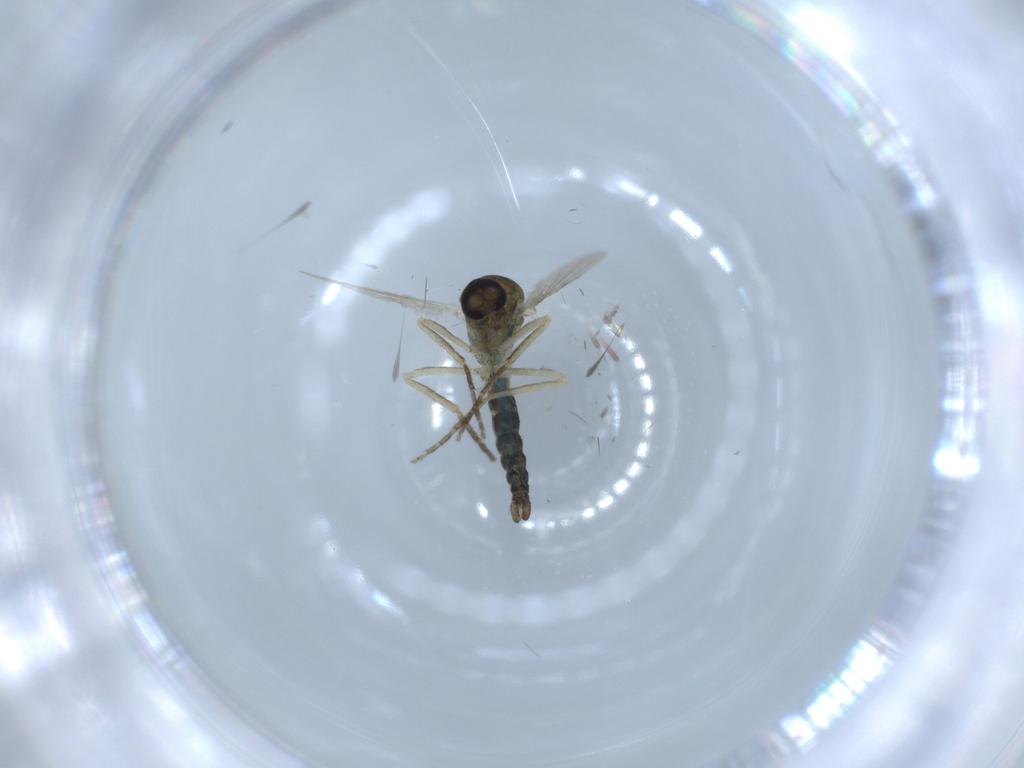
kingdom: Animalia
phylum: Arthropoda
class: Insecta
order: Diptera
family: Ceratopogonidae
